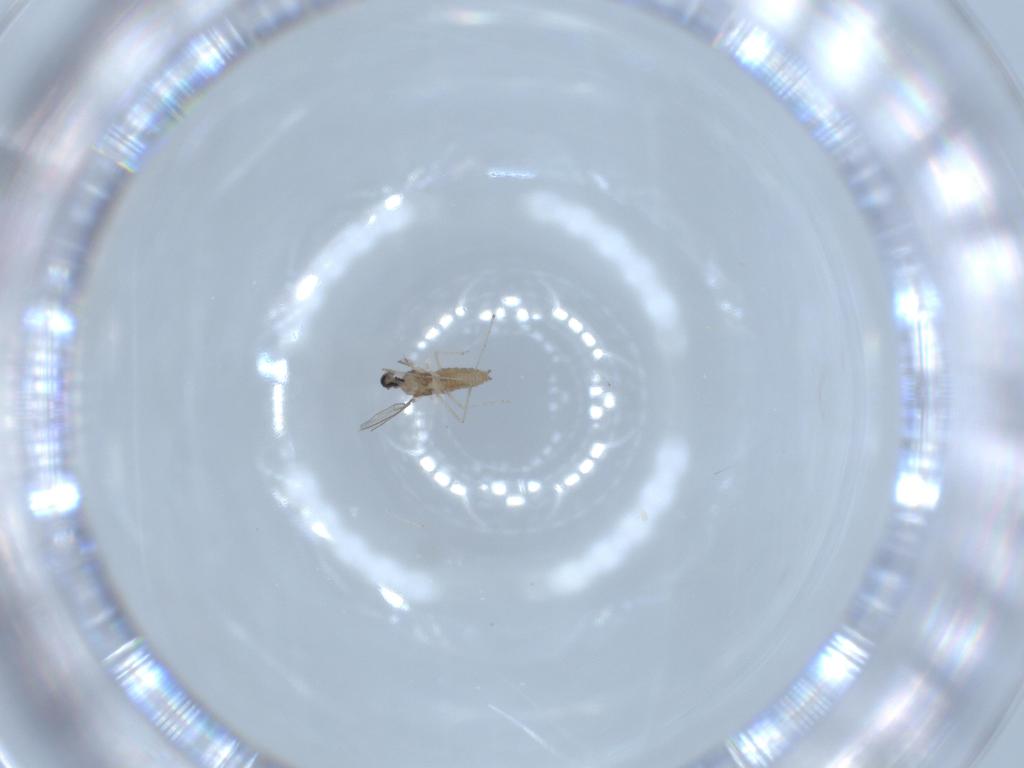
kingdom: Animalia
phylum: Arthropoda
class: Insecta
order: Diptera
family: Cecidomyiidae
